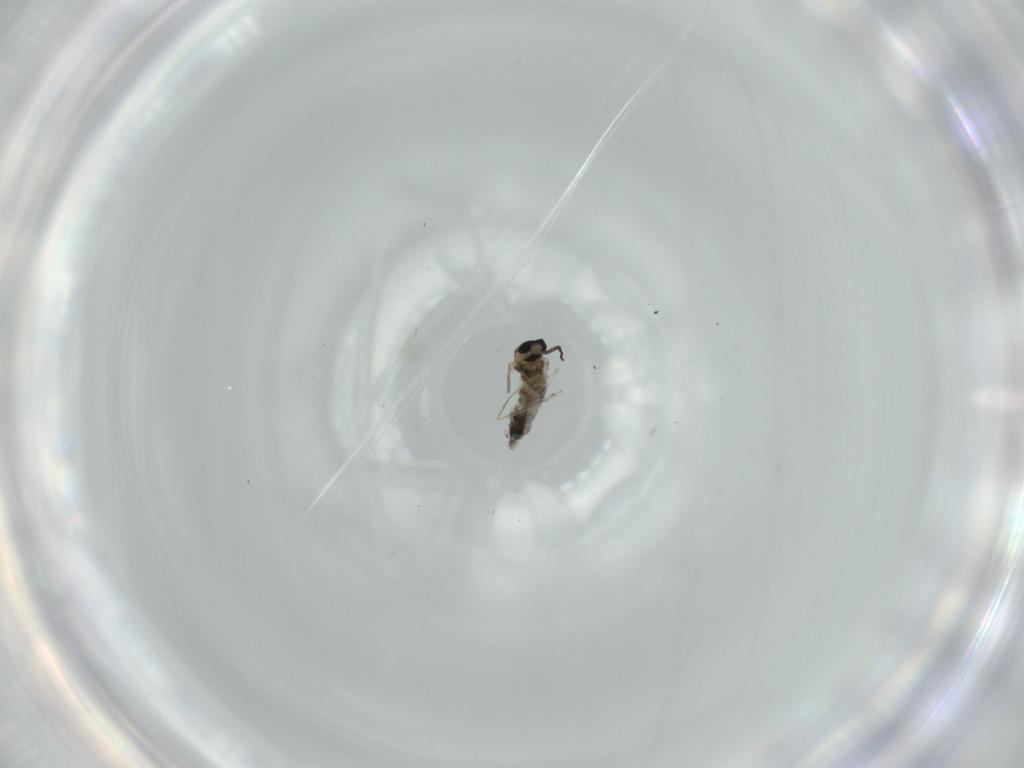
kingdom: Animalia
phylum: Arthropoda
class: Insecta
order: Diptera
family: Cecidomyiidae
